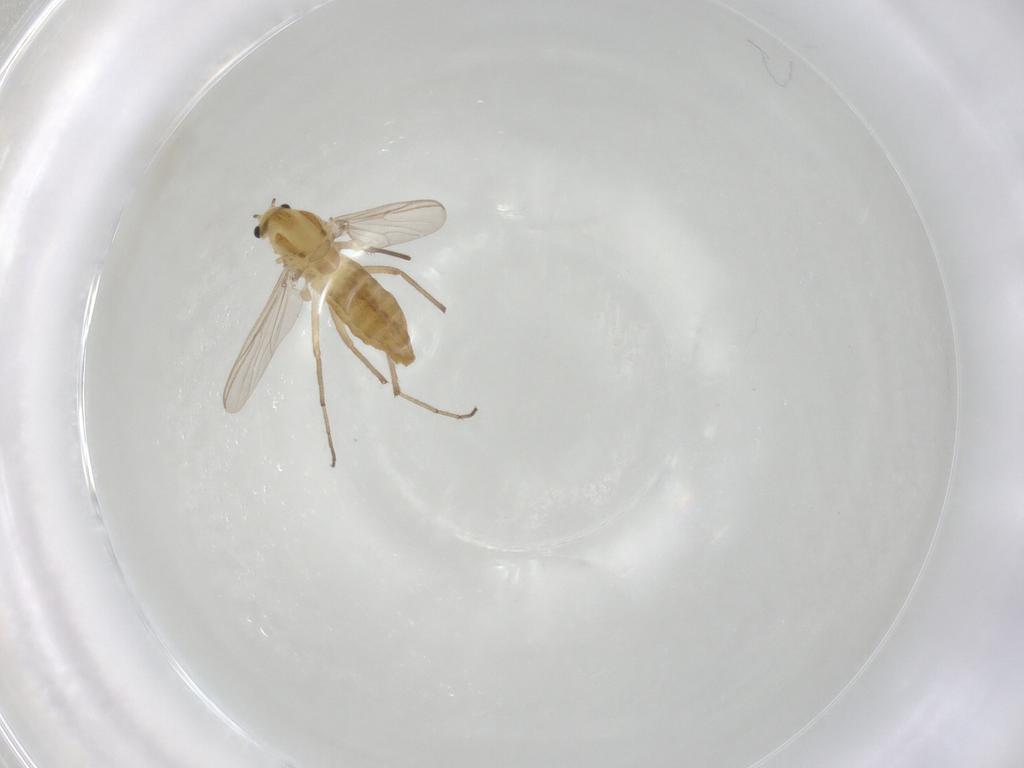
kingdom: Animalia
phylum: Arthropoda
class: Insecta
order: Diptera
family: Chironomidae
